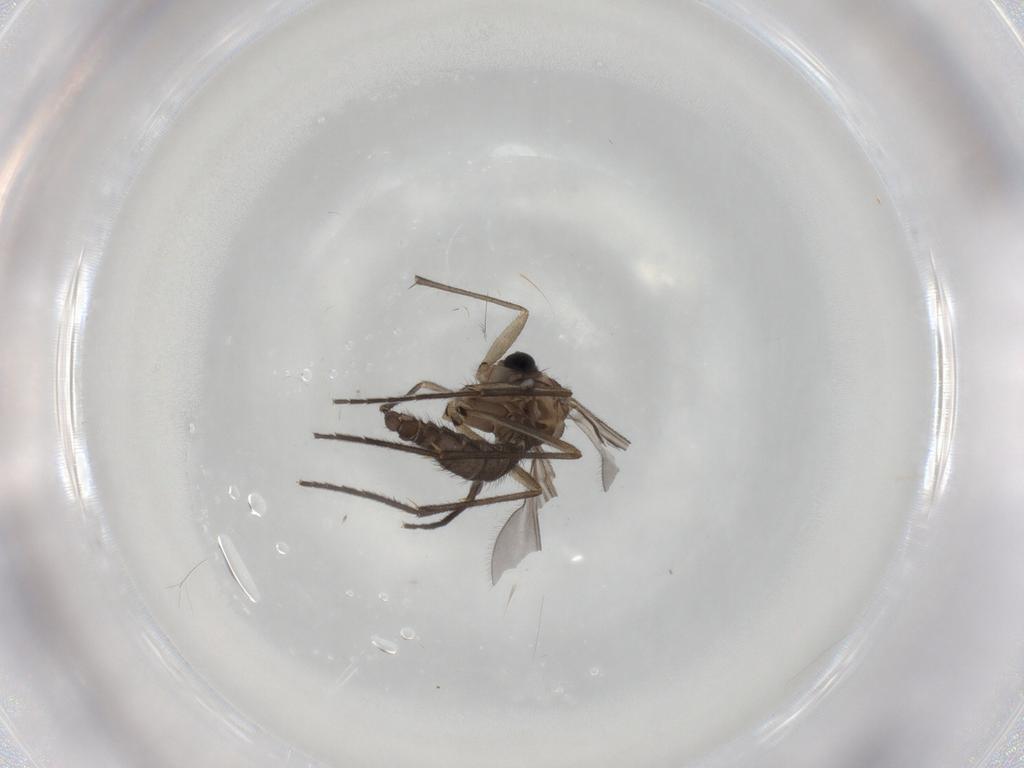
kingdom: Animalia
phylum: Arthropoda
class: Insecta
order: Diptera
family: Sciaridae
